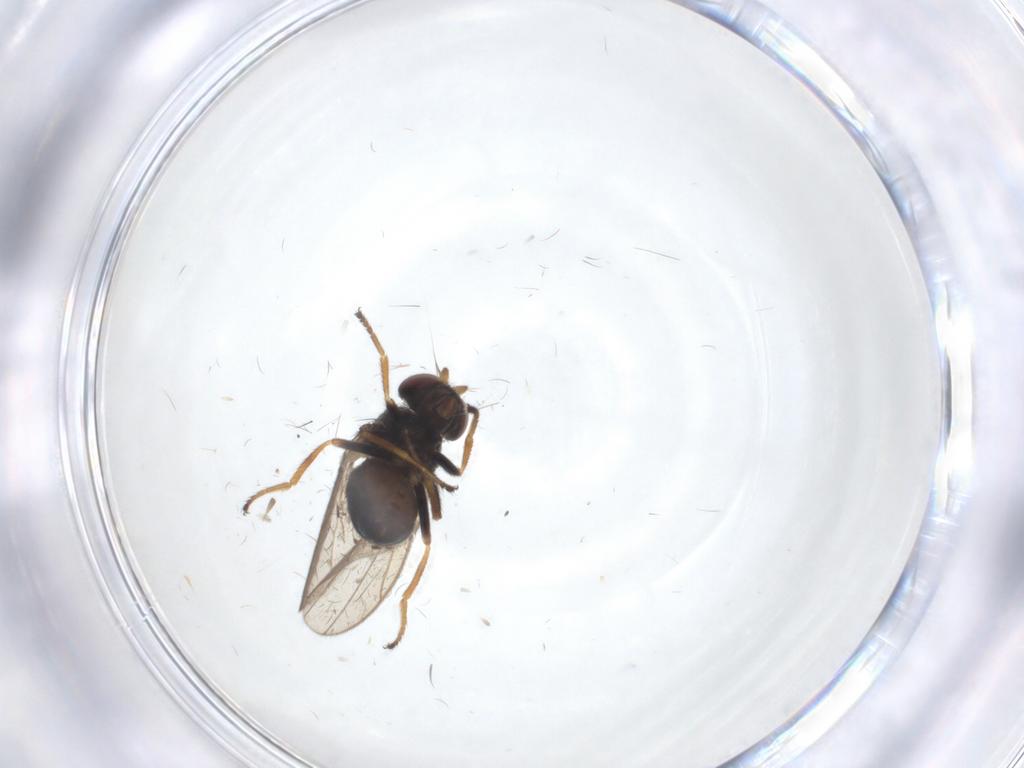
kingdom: Animalia
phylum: Arthropoda
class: Insecta
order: Diptera
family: Ephydridae
